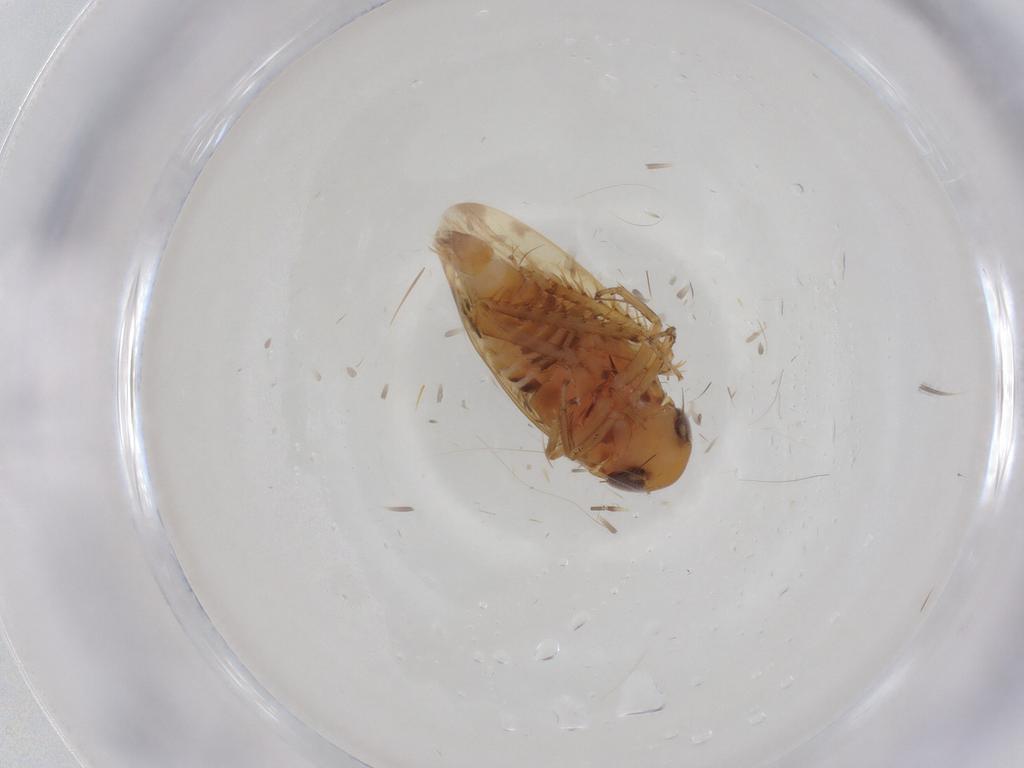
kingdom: Animalia
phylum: Arthropoda
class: Insecta
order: Hemiptera
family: Cicadellidae
